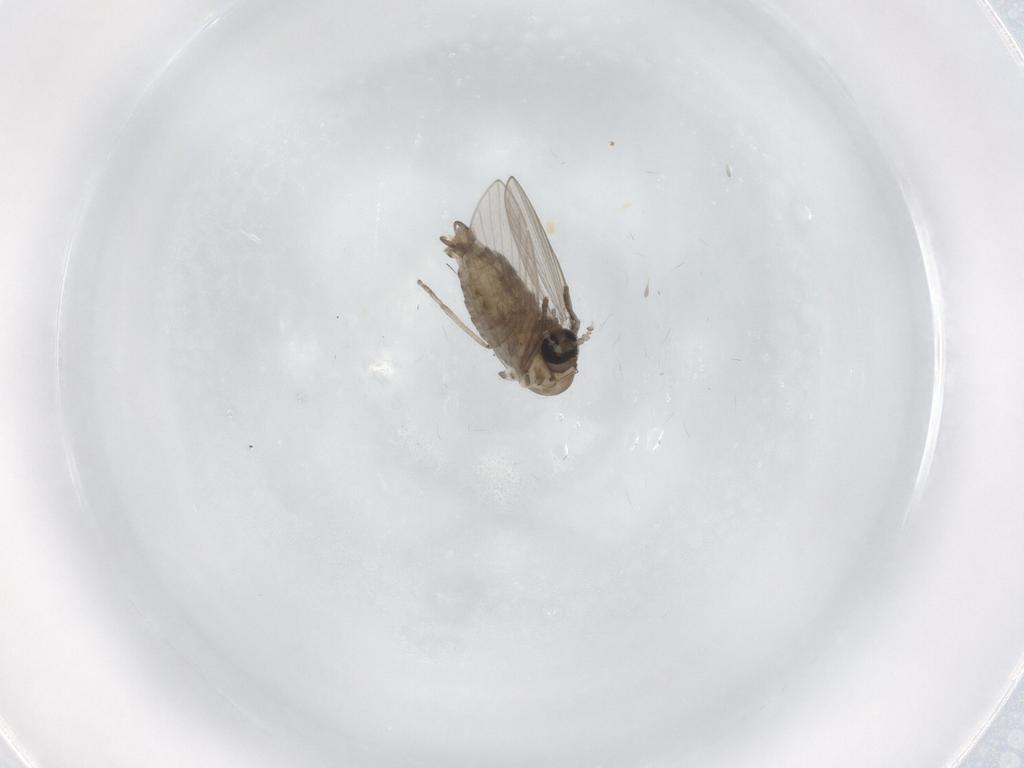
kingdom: Animalia
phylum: Arthropoda
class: Insecta
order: Diptera
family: Psychodidae
